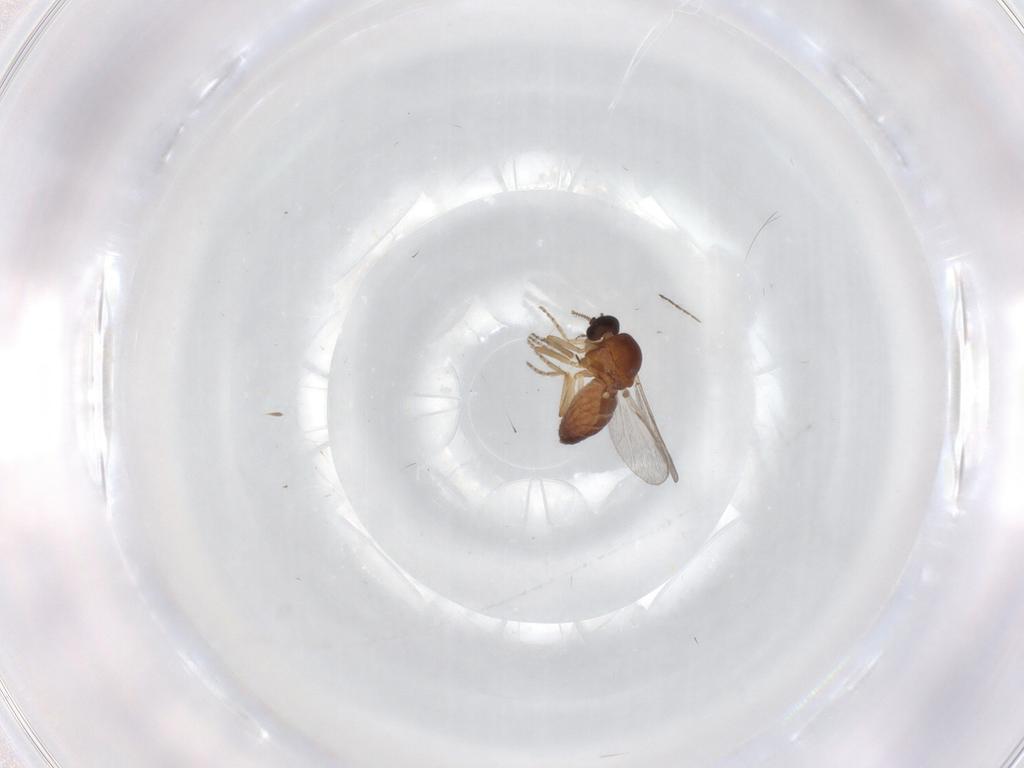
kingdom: Animalia
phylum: Arthropoda
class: Insecta
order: Diptera
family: Ceratopogonidae
